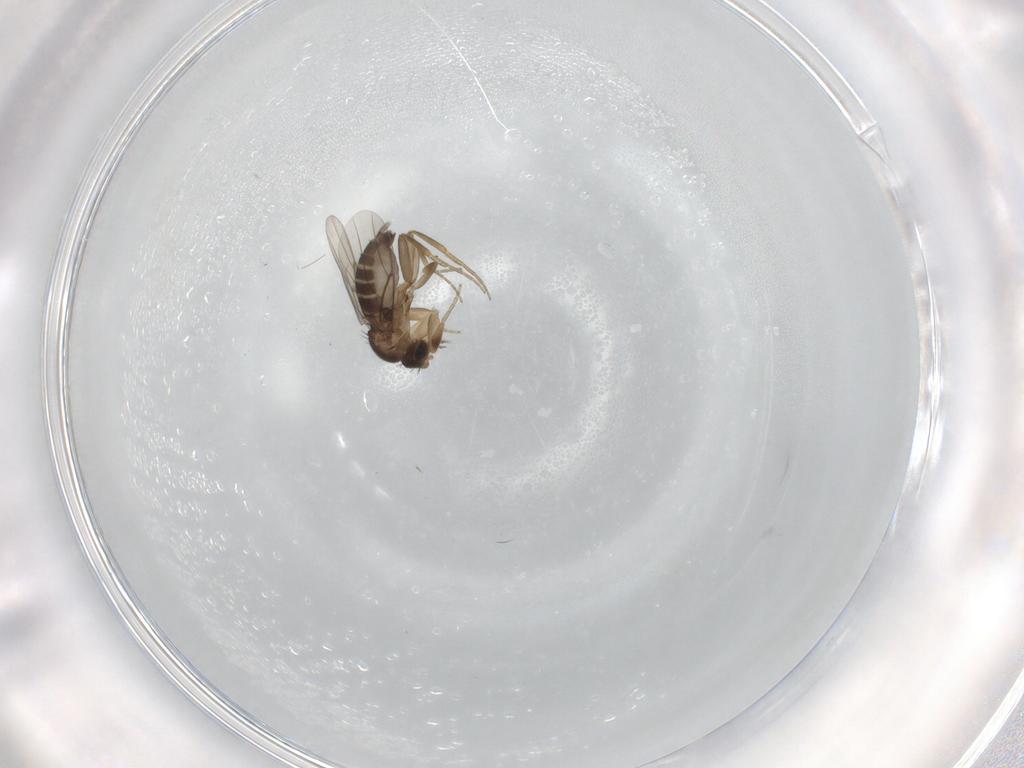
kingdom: Animalia
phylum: Arthropoda
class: Insecta
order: Diptera
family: Phoridae
